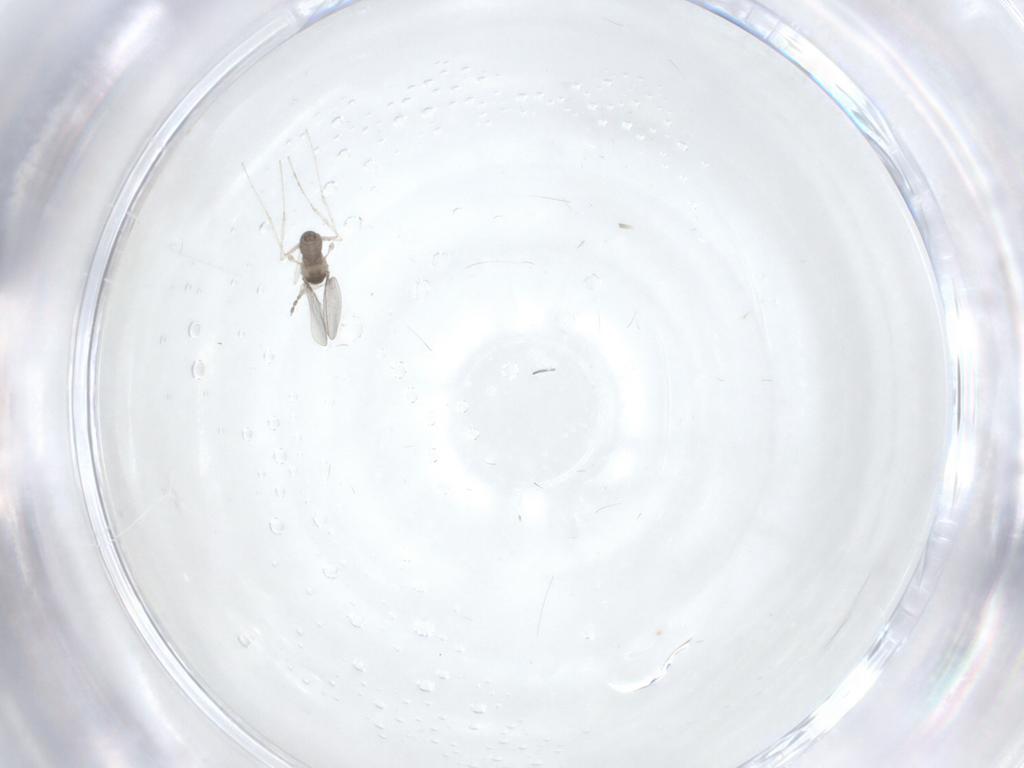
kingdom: Animalia
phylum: Arthropoda
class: Insecta
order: Diptera
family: Cecidomyiidae
